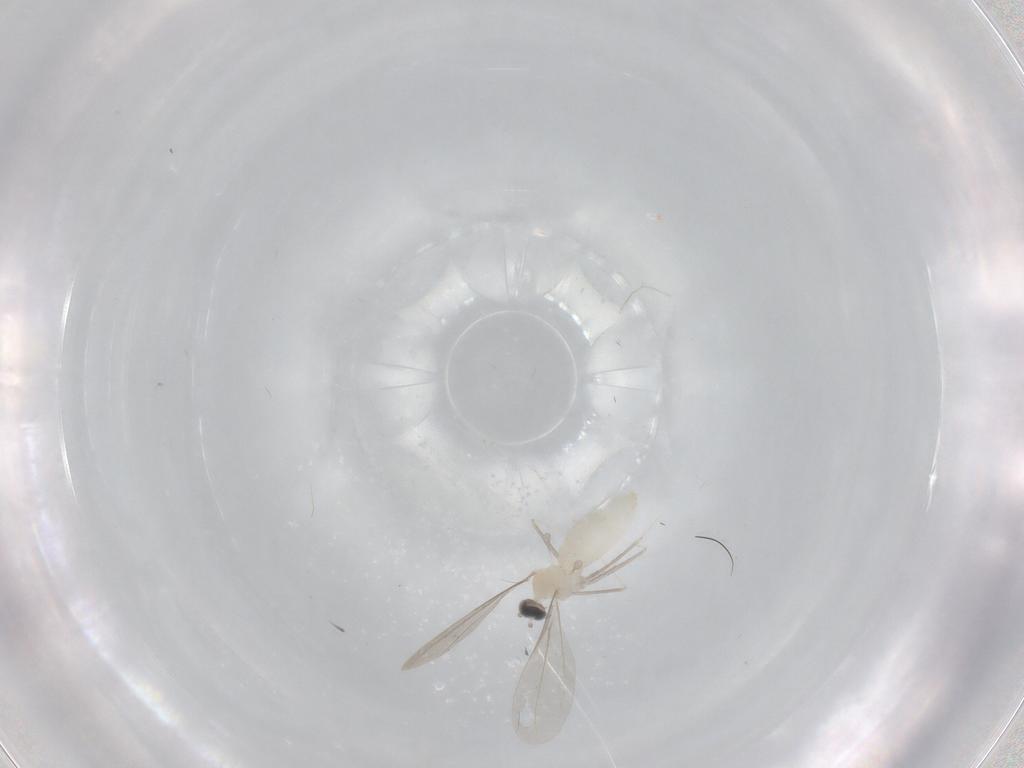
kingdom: Animalia
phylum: Arthropoda
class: Insecta
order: Diptera
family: Cecidomyiidae
